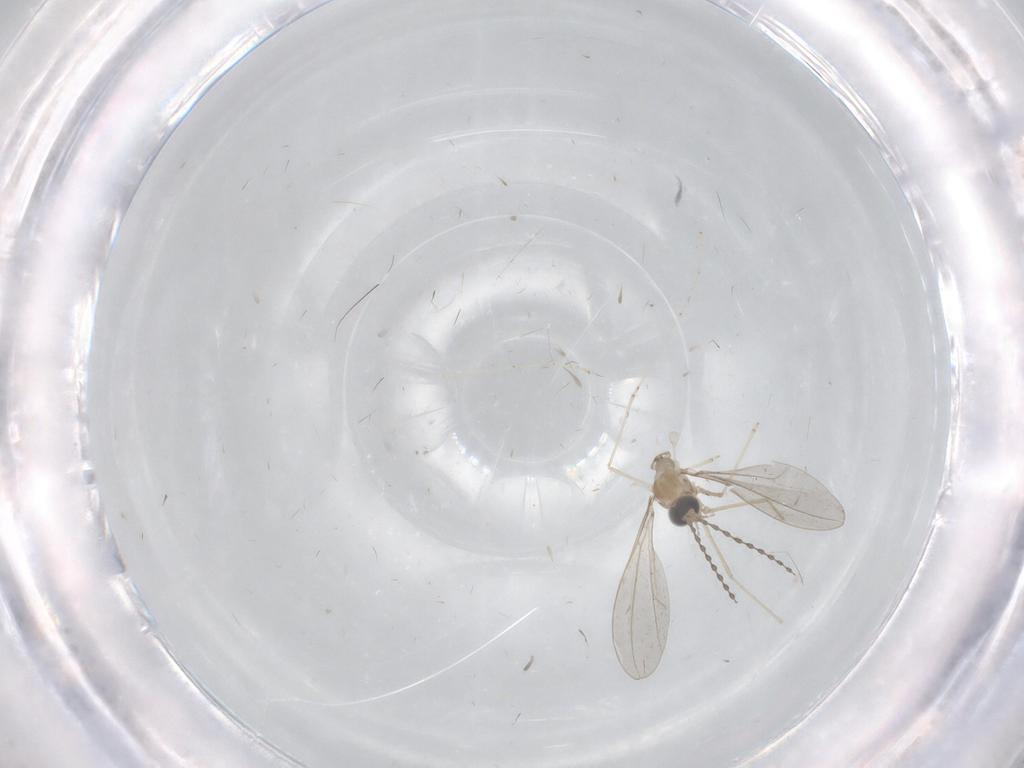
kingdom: Animalia
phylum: Arthropoda
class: Insecta
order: Diptera
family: Cecidomyiidae
